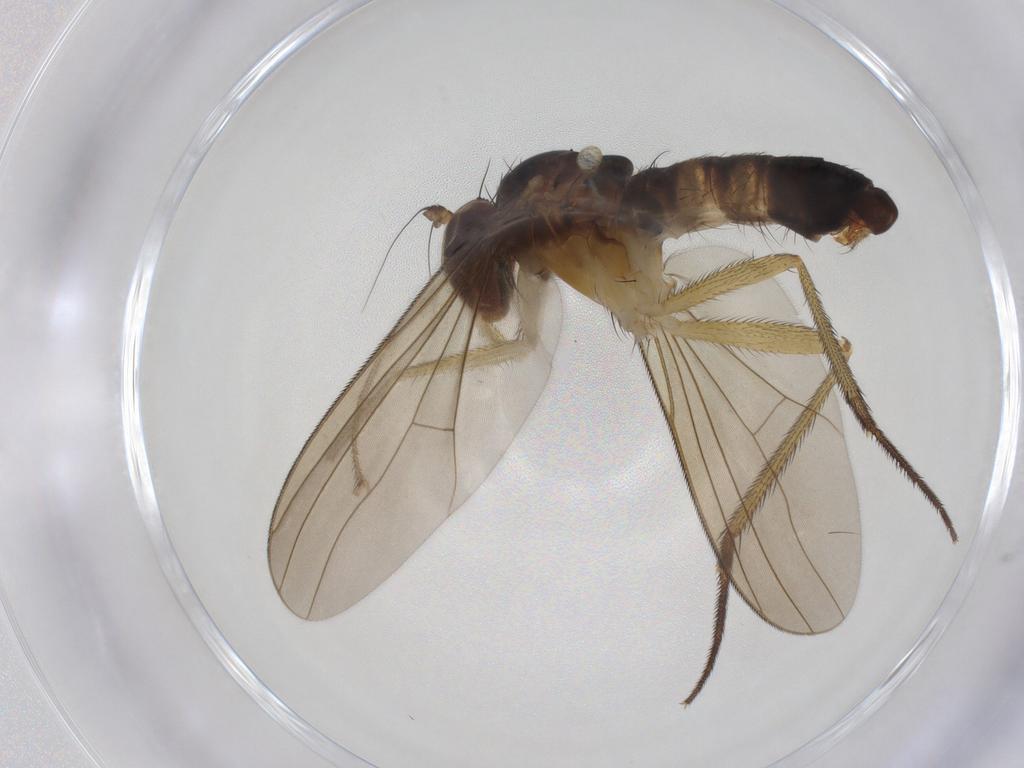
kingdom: Animalia
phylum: Arthropoda
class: Insecta
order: Diptera
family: Dolichopodidae
